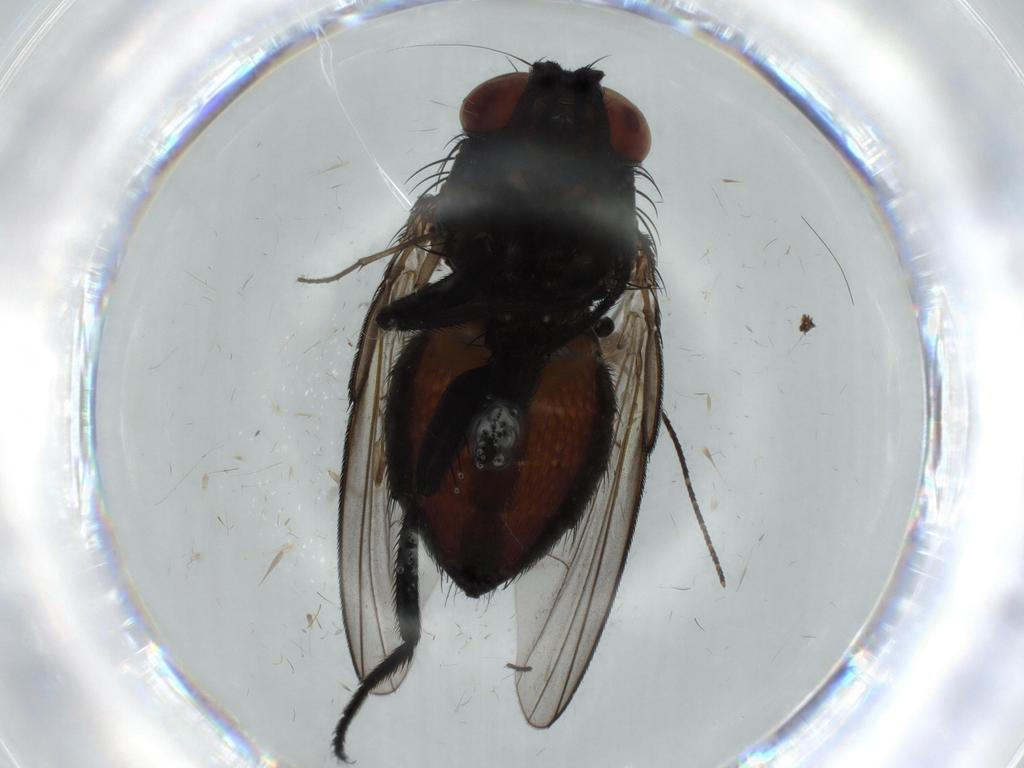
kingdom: Animalia
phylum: Arthropoda
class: Insecta
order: Diptera
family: Milichiidae
